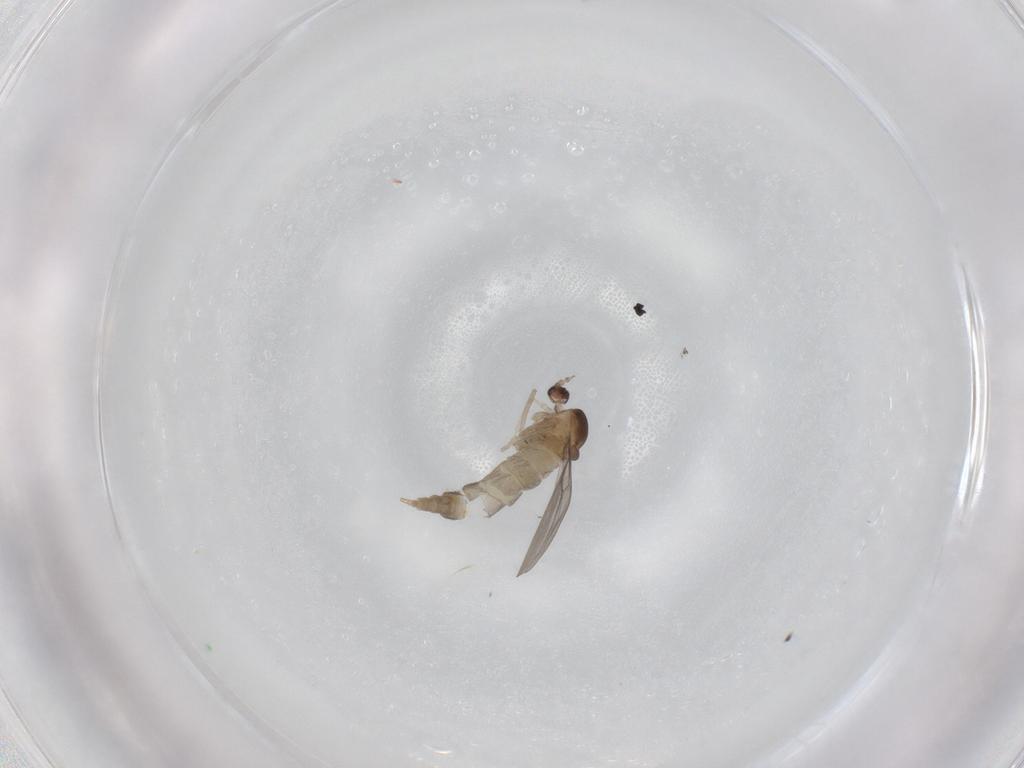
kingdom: Animalia
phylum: Arthropoda
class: Insecta
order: Diptera
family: Cecidomyiidae
